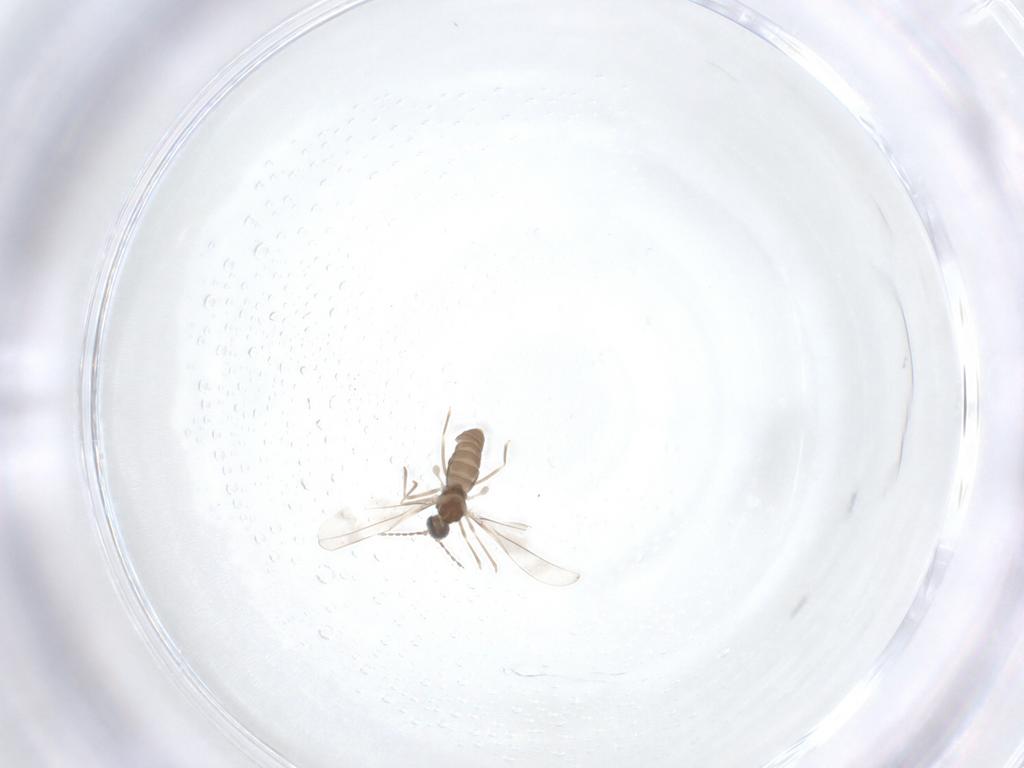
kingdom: Animalia
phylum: Arthropoda
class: Insecta
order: Diptera
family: Cecidomyiidae
